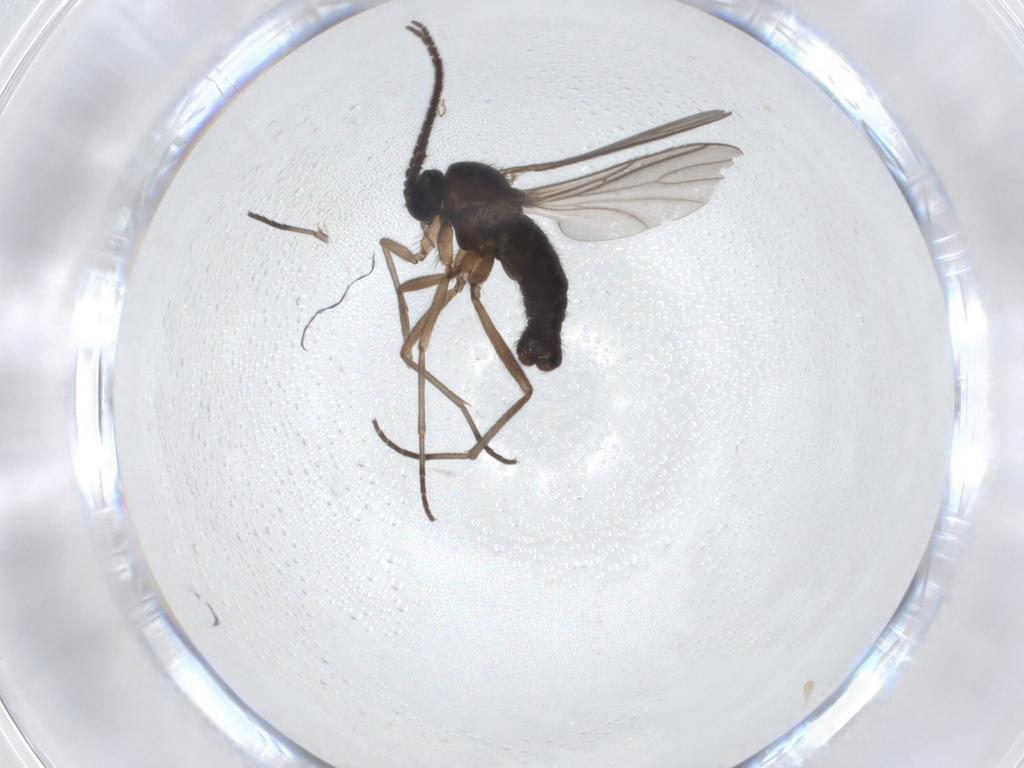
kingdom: Animalia
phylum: Arthropoda
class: Insecta
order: Diptera
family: Sciaridae
